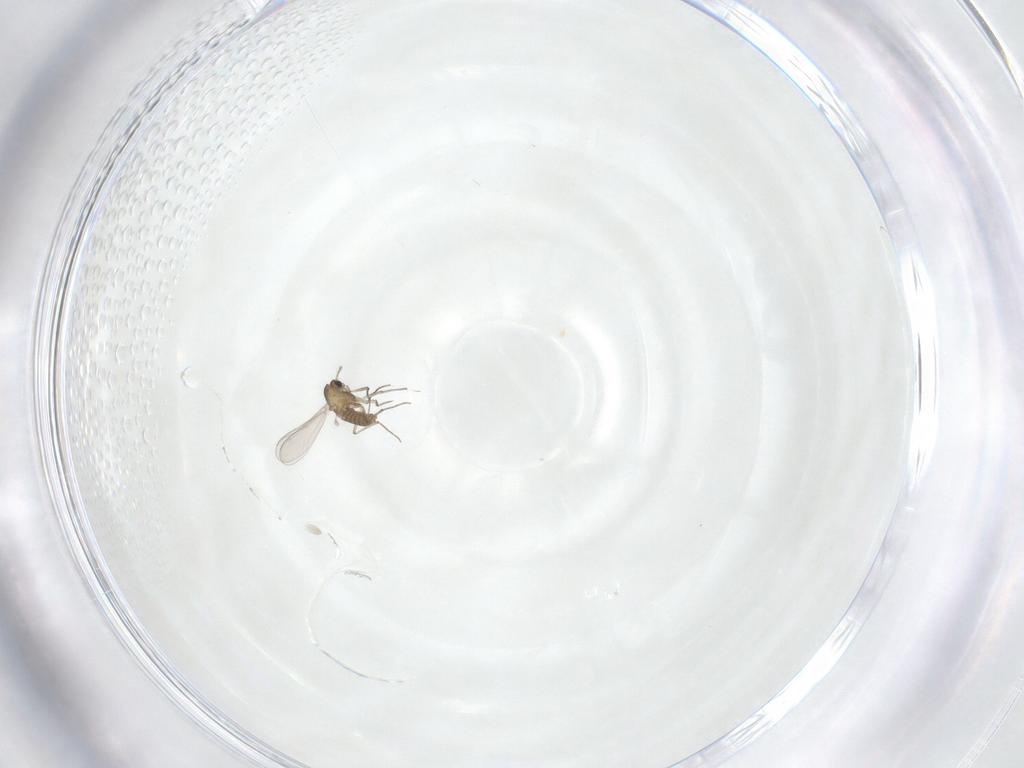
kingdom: Animalia
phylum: Arthropoda
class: Insecta
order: Diptera
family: Chironomidae
